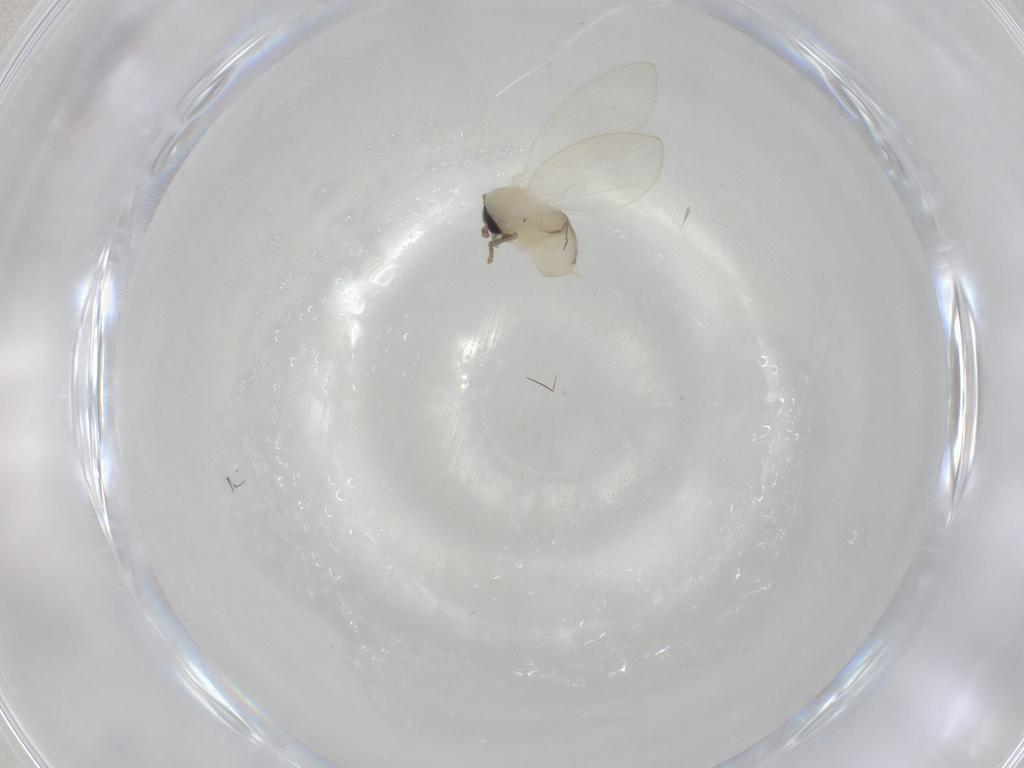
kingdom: Animalia
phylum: Arthropoda
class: Insecta
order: Diptera
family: Psychodidae
